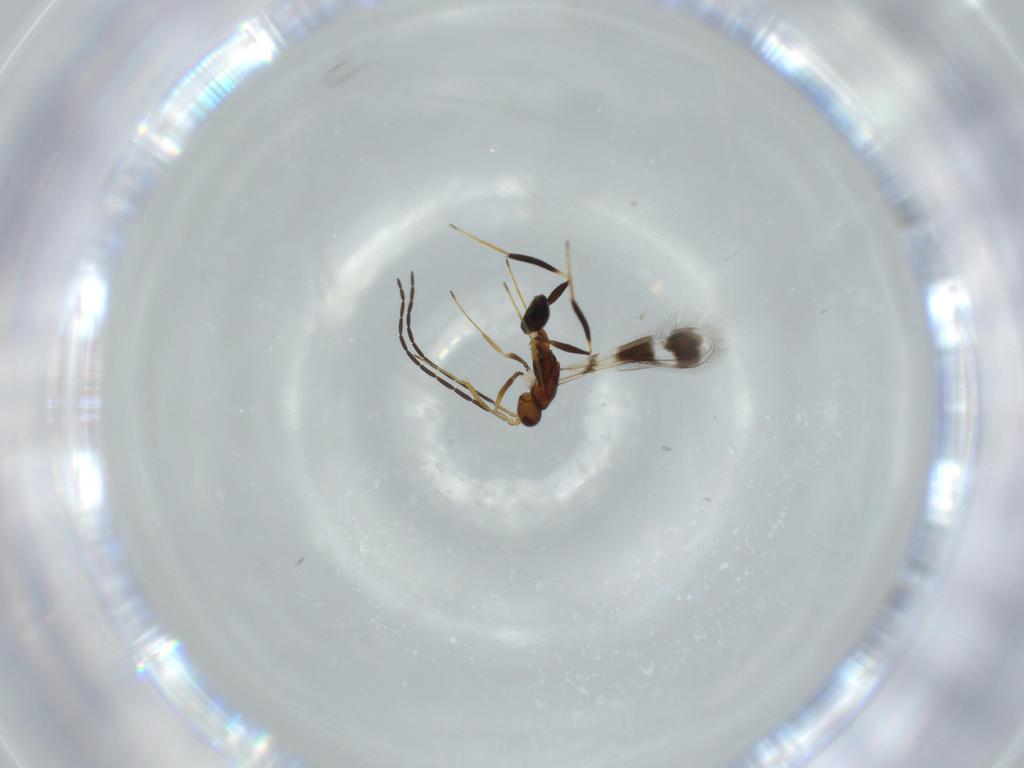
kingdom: Animalia
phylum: Arthropoda
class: Insecta
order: Hymenoptera
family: Mymaridae
